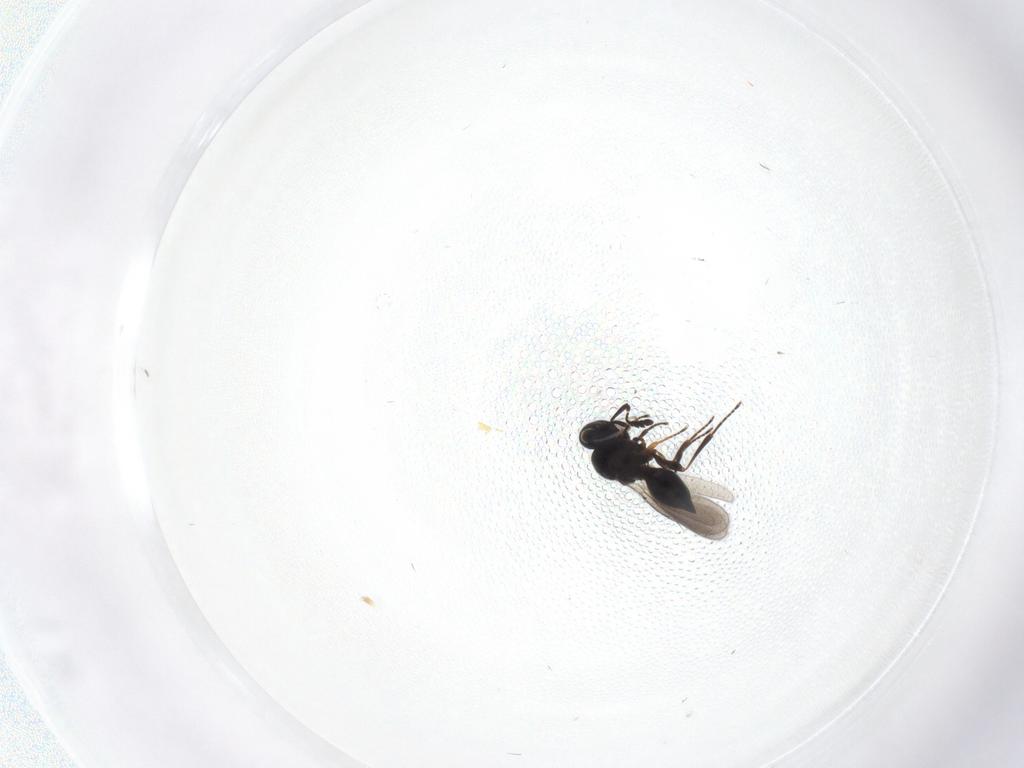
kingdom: Animalia
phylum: Arthropoda
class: Insecta
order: Hymenoptera
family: Platygastridae
